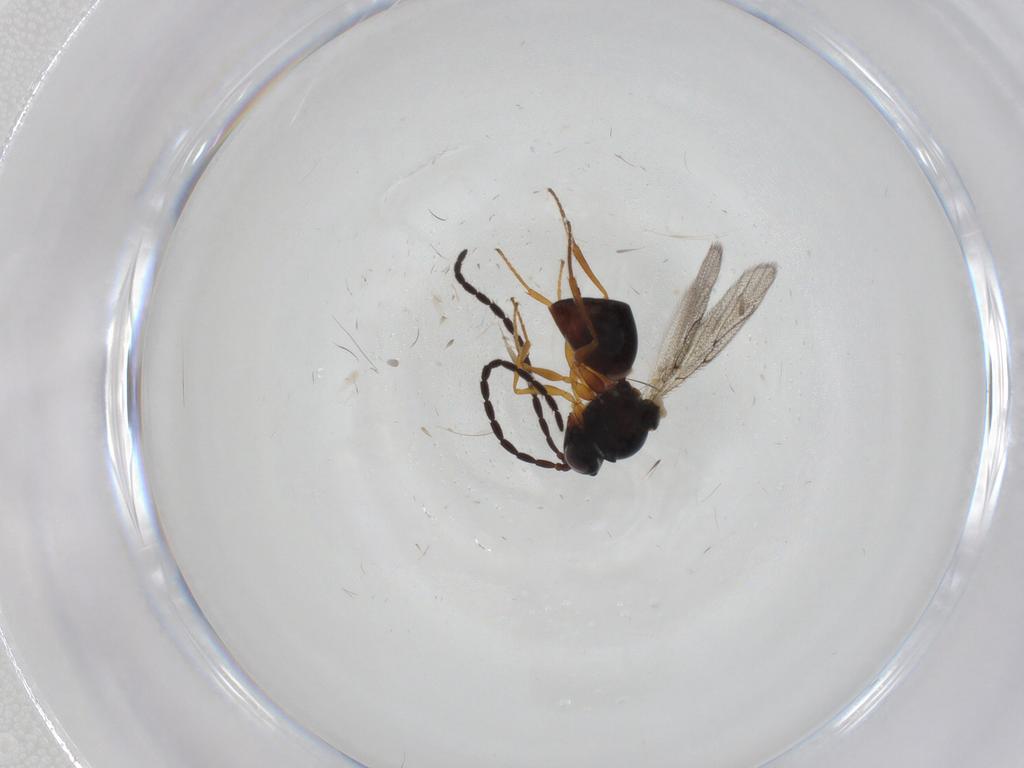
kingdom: Animalia
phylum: Arthropoda
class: Insecta
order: Hymenoptera
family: Figitidae
